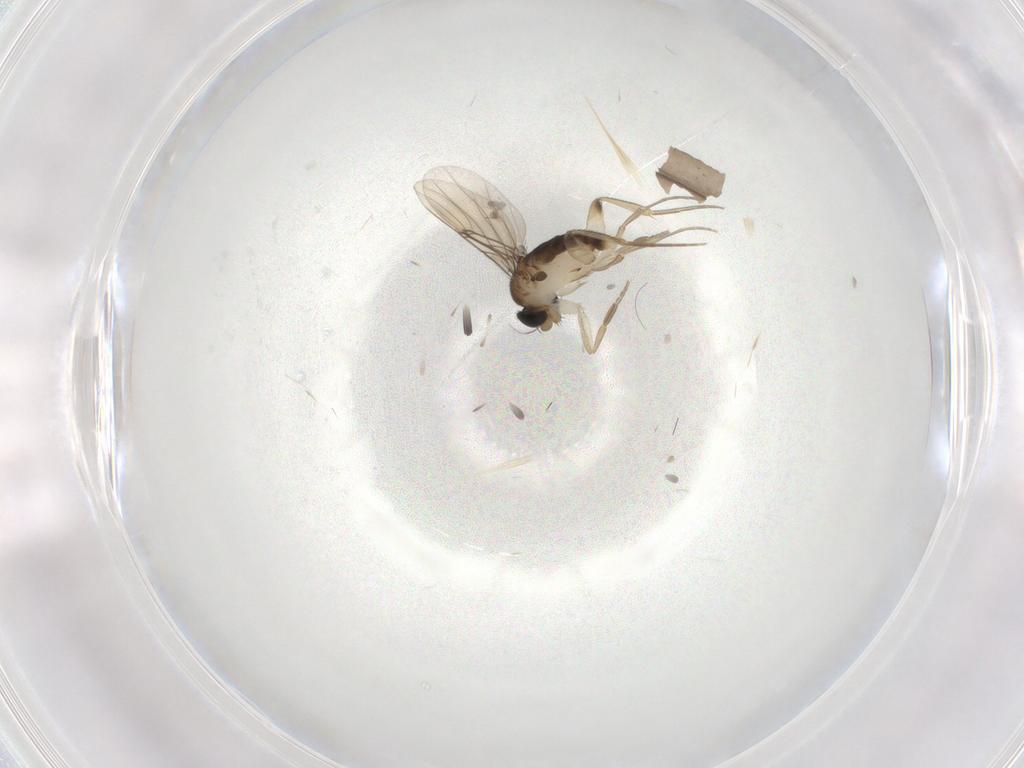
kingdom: Animalia
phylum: Arthropoda
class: Insecta
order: Diptera
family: Phoridae
